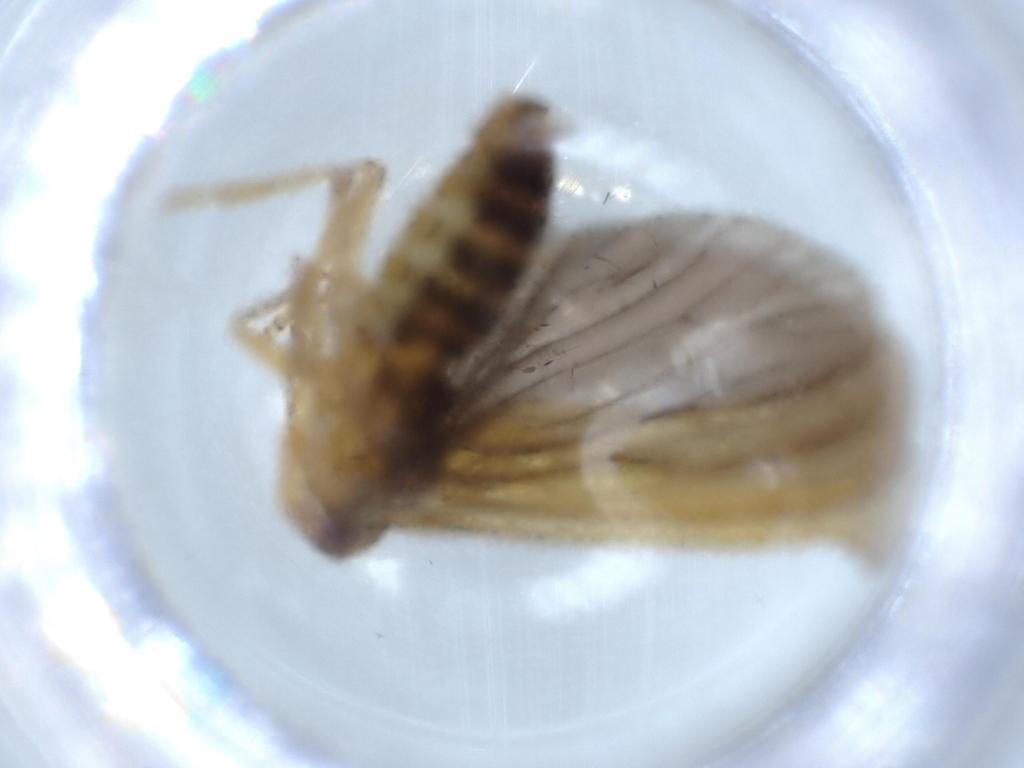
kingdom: Animalia
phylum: Arthropoda
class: Insecta
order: Hemiptera
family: Achilidae
